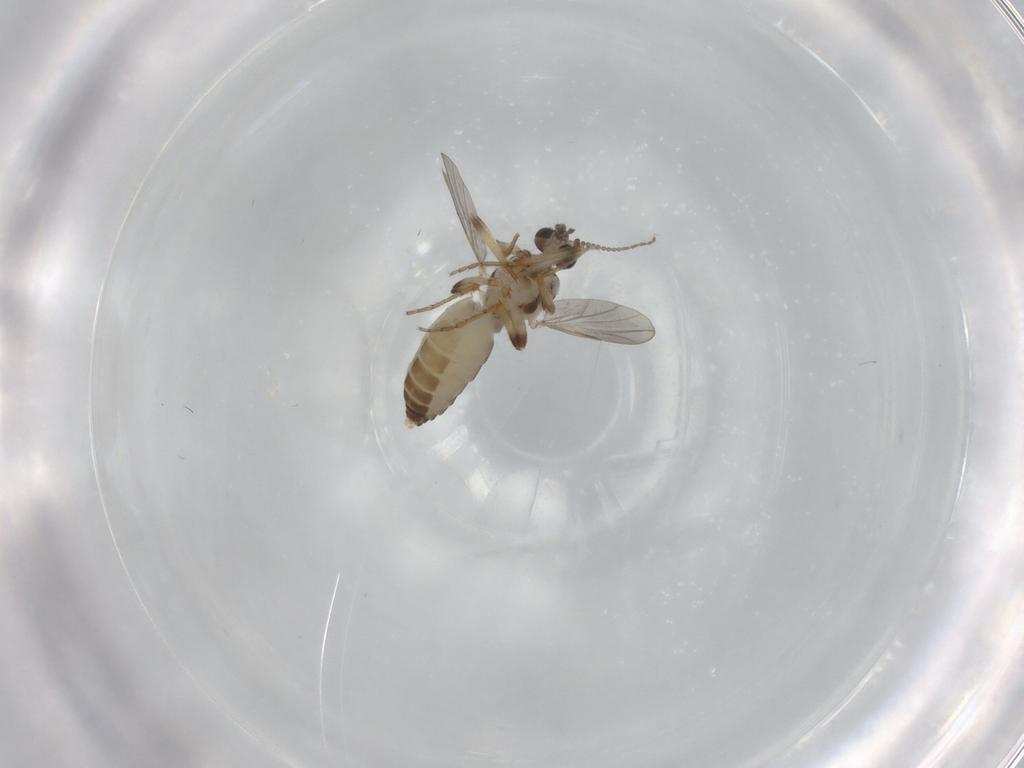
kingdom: Animalia
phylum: Arthropoda
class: Insecta
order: Diptera
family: Ceratopogonidae
